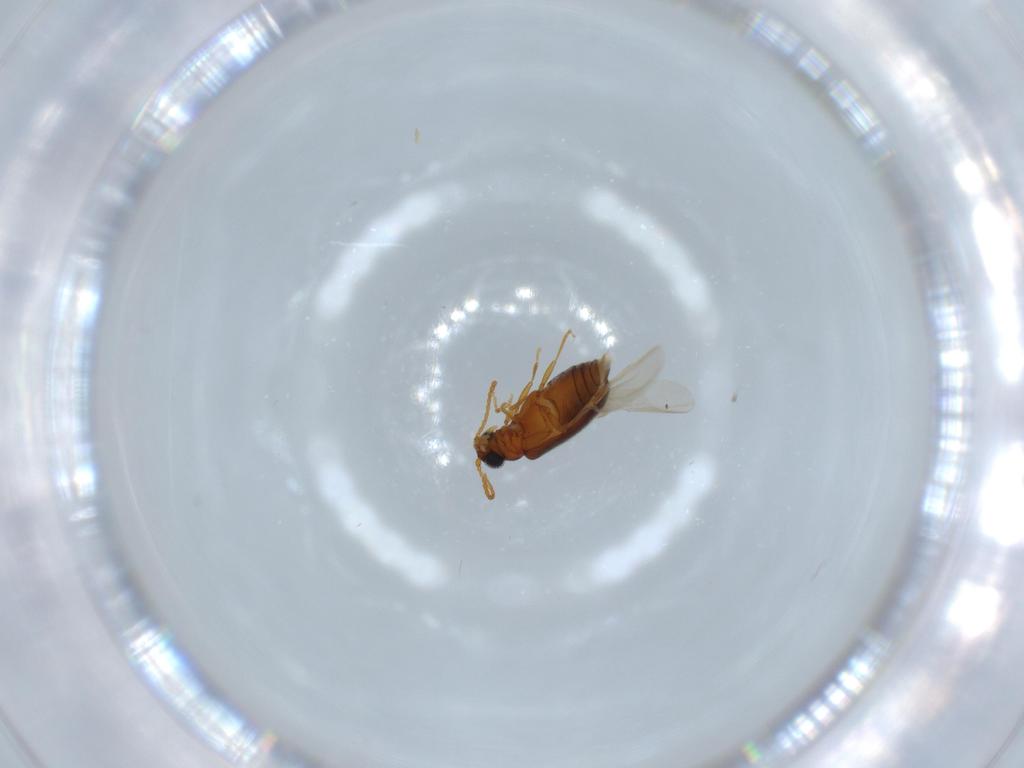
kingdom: Animalia
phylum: Arthropoda
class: Insecta
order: Coleoptera
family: Aderidae
